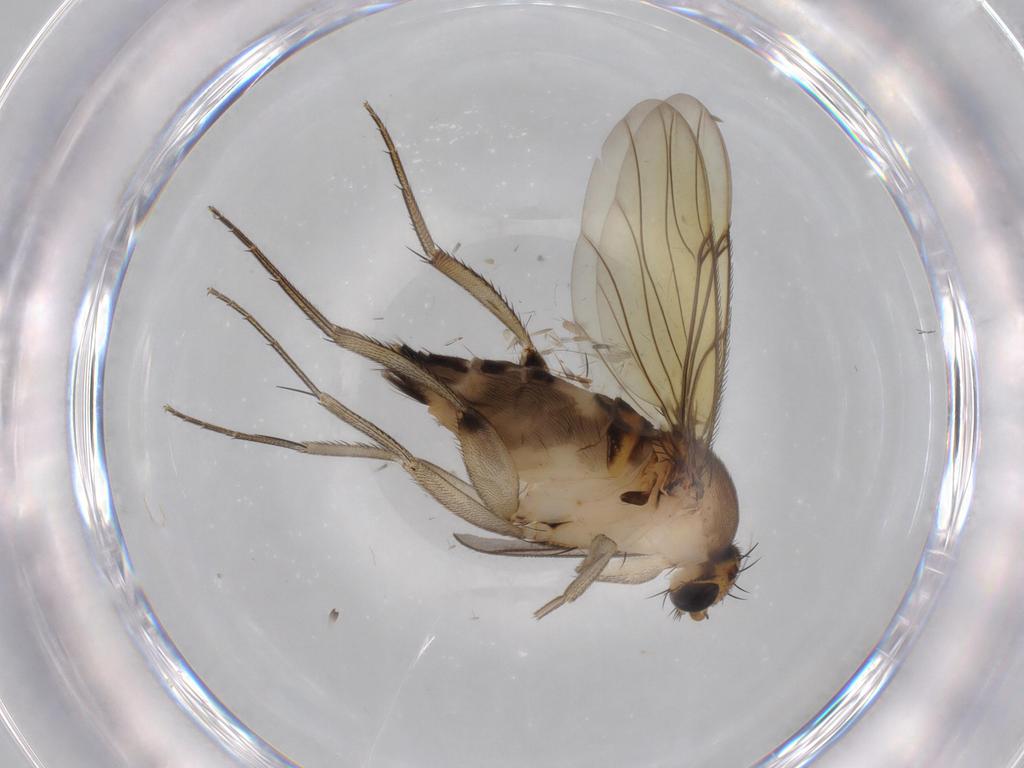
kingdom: Animalia
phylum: Arthropoda
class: Insecta
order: Diptera
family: Phoridae
